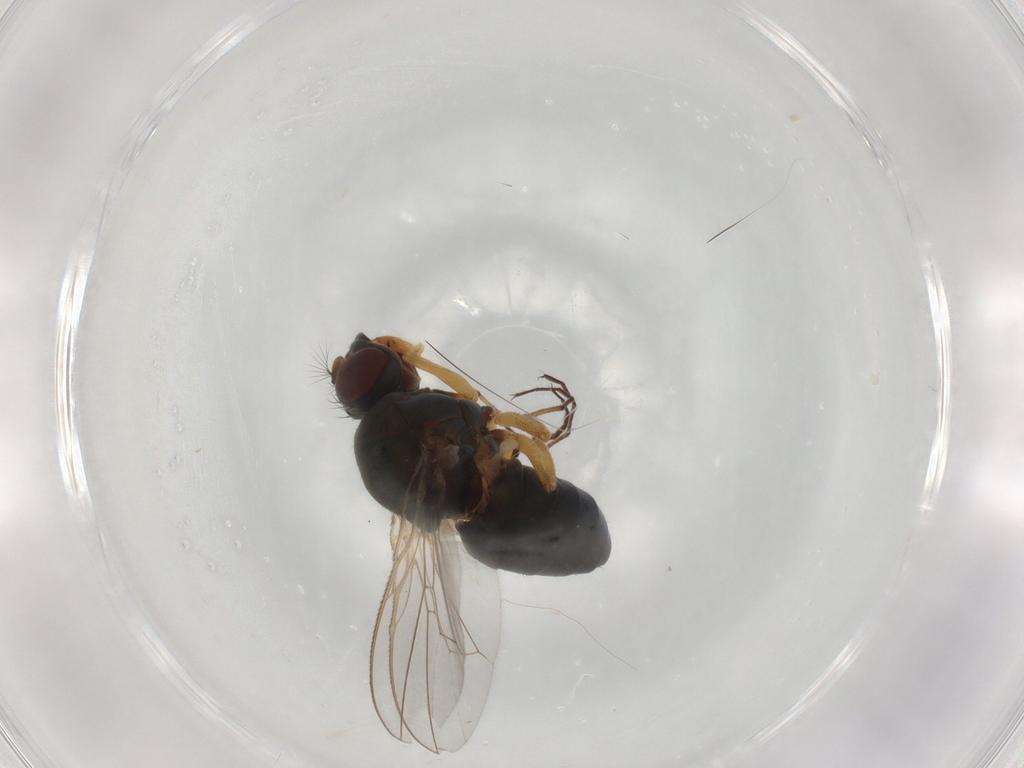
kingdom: Animalia
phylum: Arthropoda
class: Insecta
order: Diptera
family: Ephydridae
